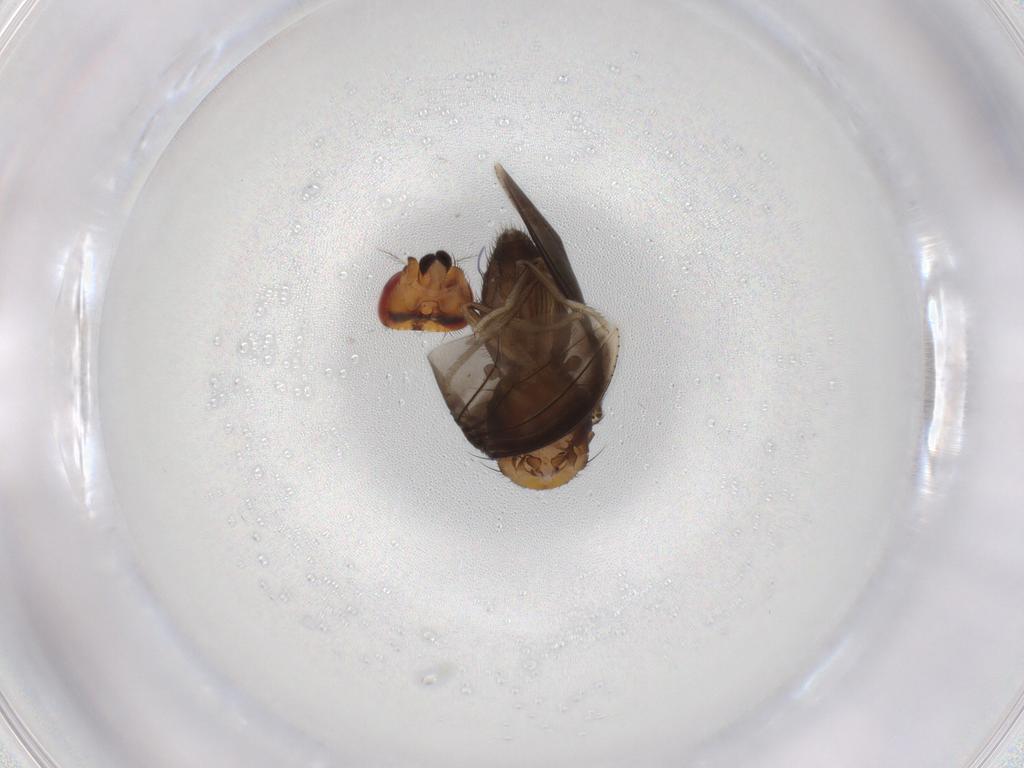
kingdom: Animalia
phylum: Arthropoda
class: Insecta
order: Diptera
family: Drosophilidae
